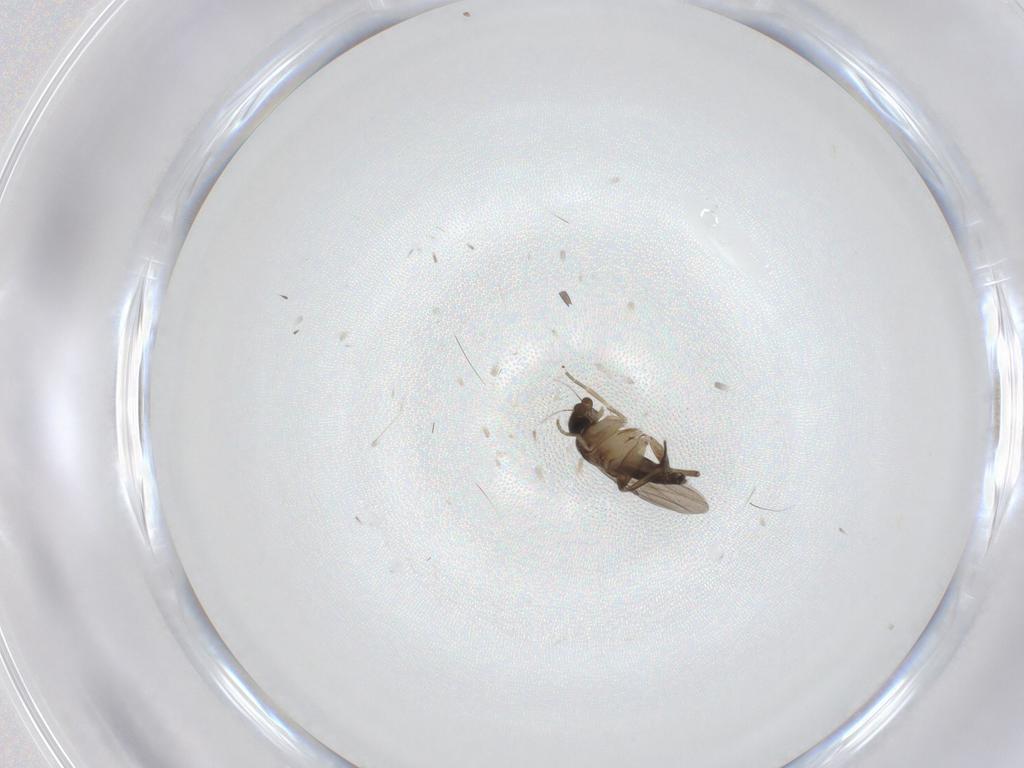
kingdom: Animalia
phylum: Arthropoda
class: Insecta
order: Diptera
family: Phoridae
